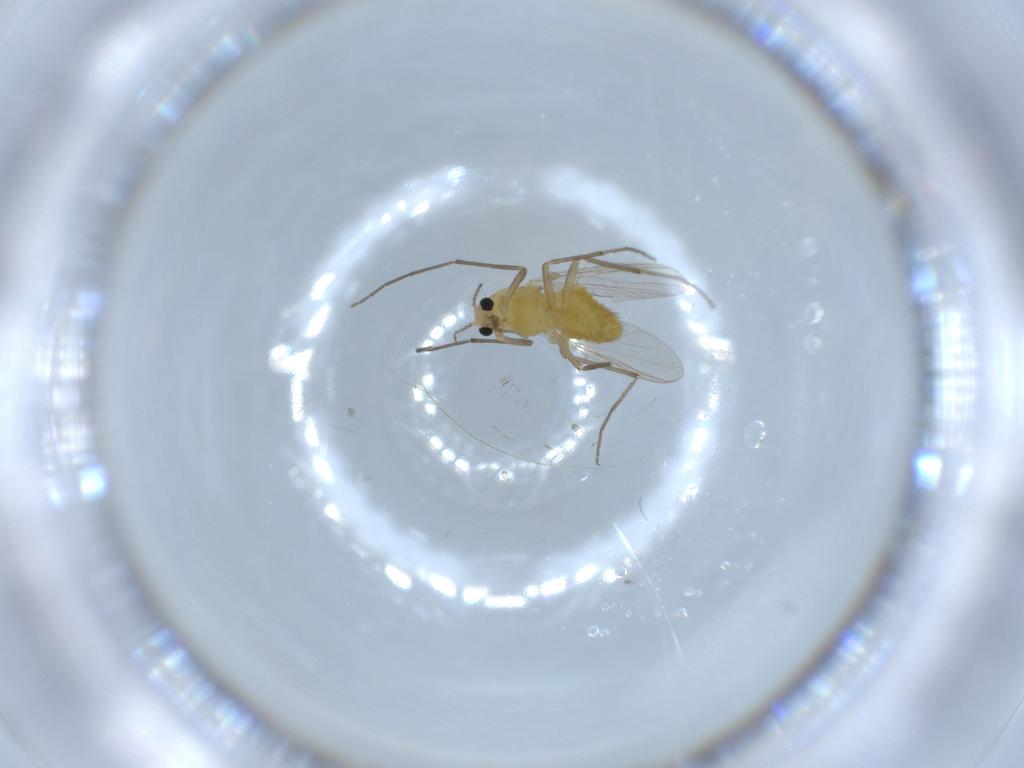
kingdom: Animalia
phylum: Arthropoda
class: Insecta
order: Diptera
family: Chironomidae
